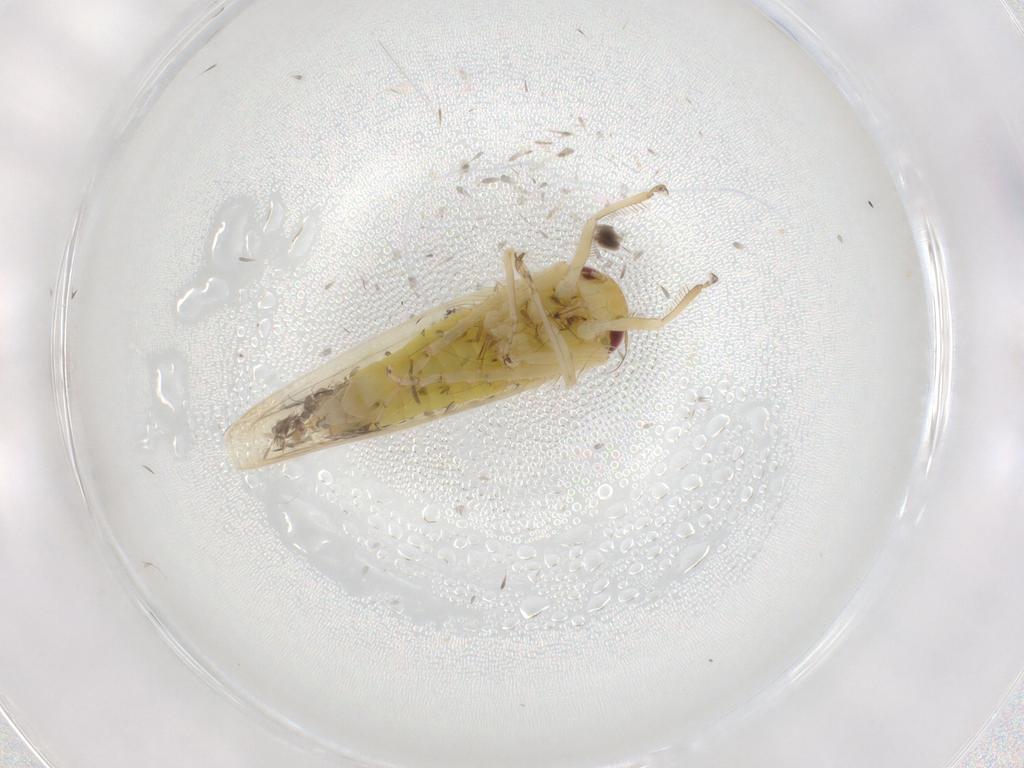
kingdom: Animalia
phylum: Arthropoda
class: Insecta
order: Hemiptera
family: Cicadellidae
